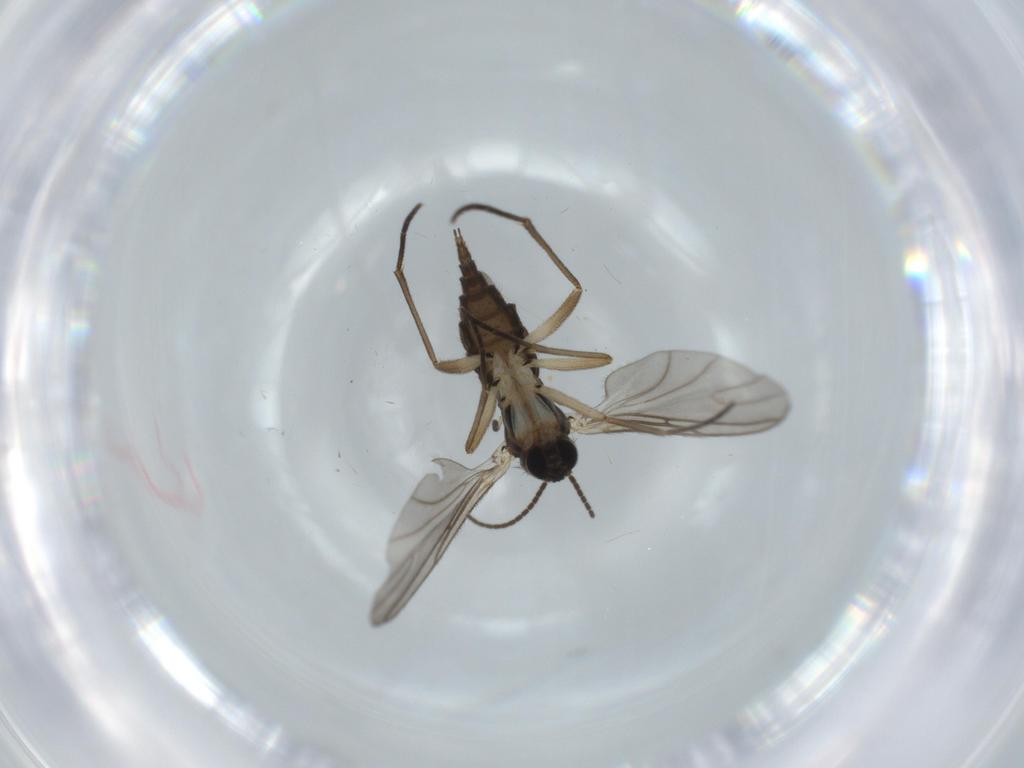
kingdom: Animalia
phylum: Arthropoda
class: Insecta
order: Diptera
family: Sciaridae
